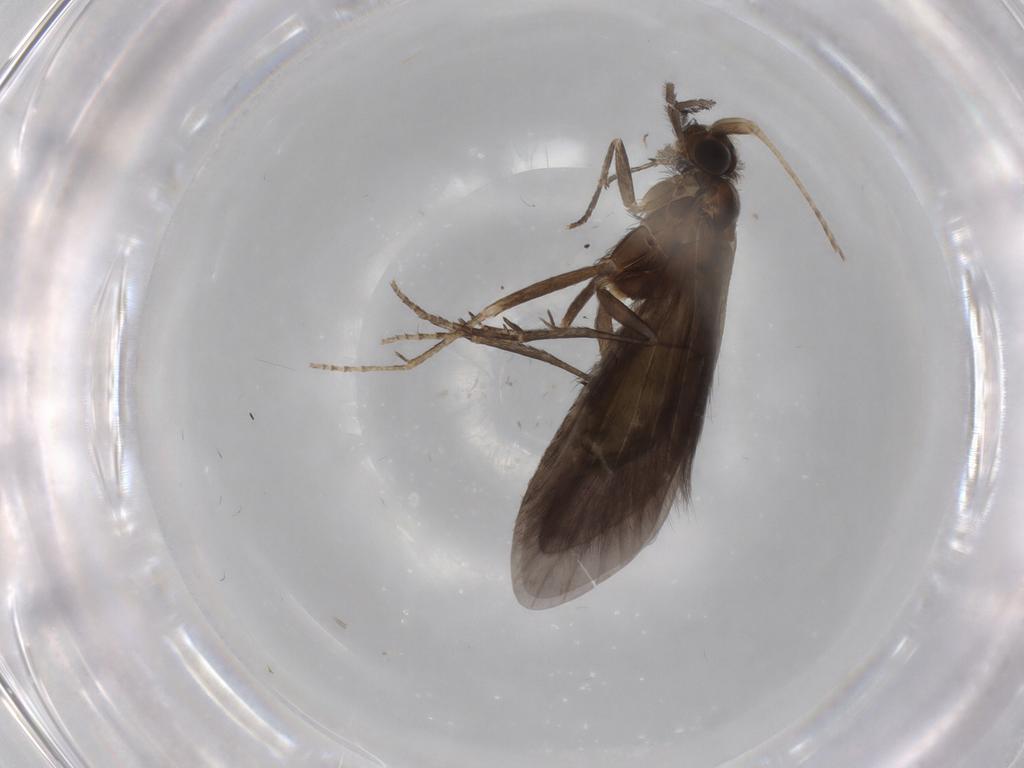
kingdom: Animalia
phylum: Arthropoda
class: Insecta
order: Trichoptera
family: Helicopsychidae
